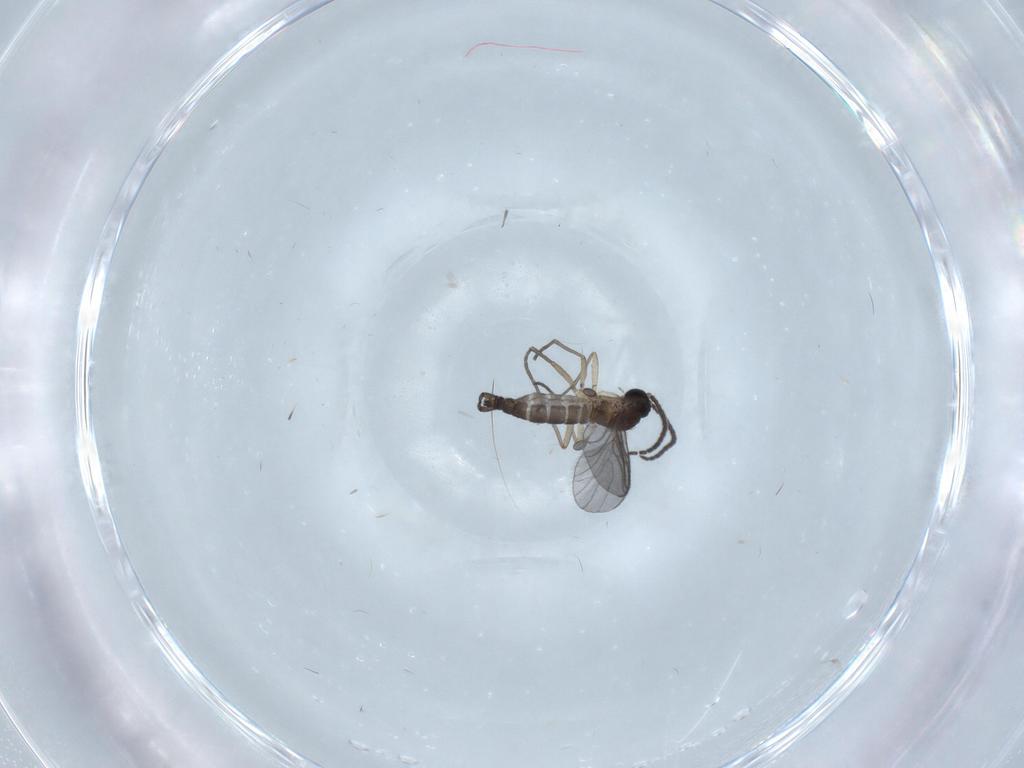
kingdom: Animalia
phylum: Arthropoda
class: Insecta
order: Diptera
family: Sciaridae
